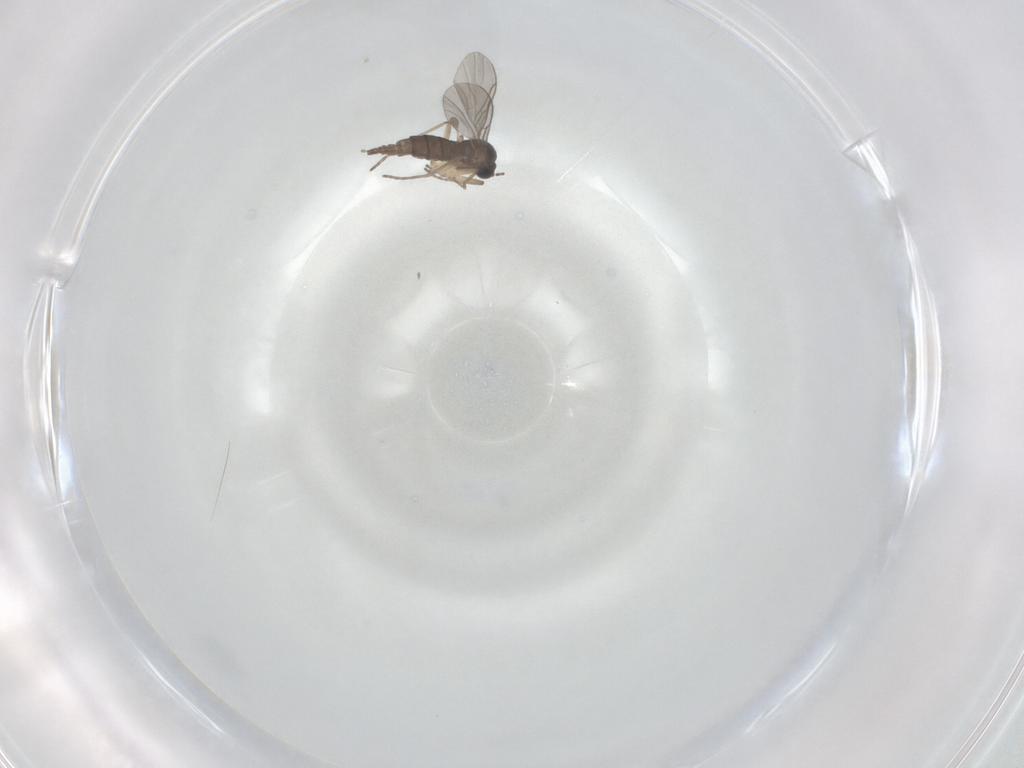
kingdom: Animalia
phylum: Arthropoda
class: Insecta
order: Diptera
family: Sciaridae
